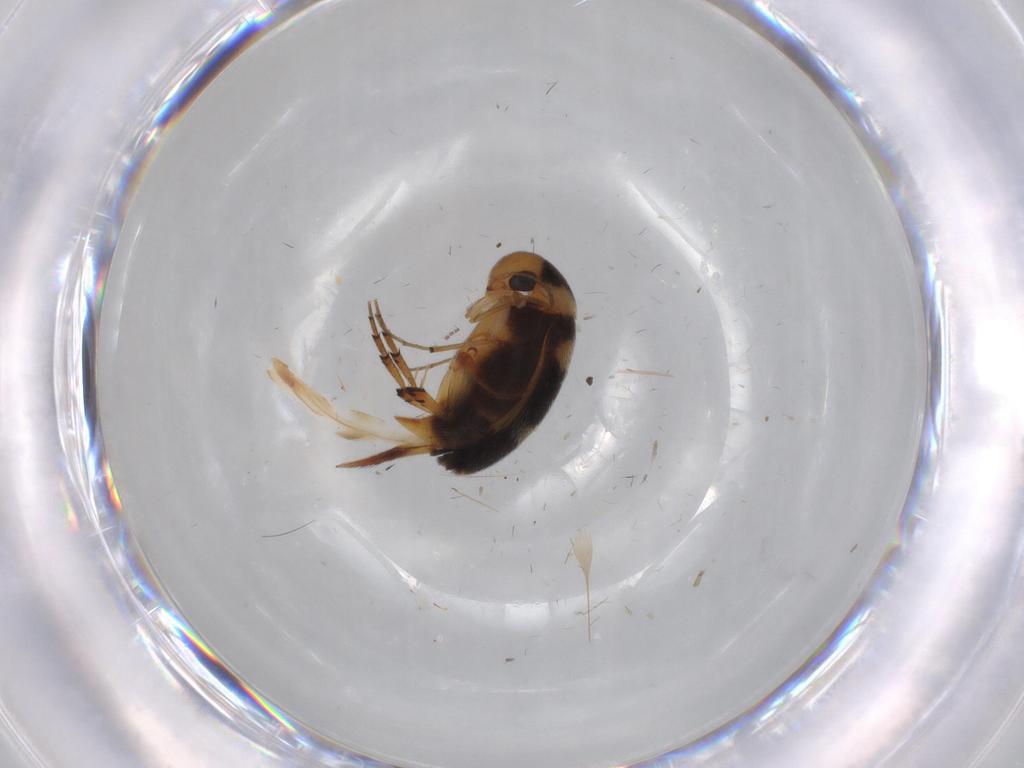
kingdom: Animalia
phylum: Arthropoda
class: Insecta
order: Coleoptera
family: Mordellidae
